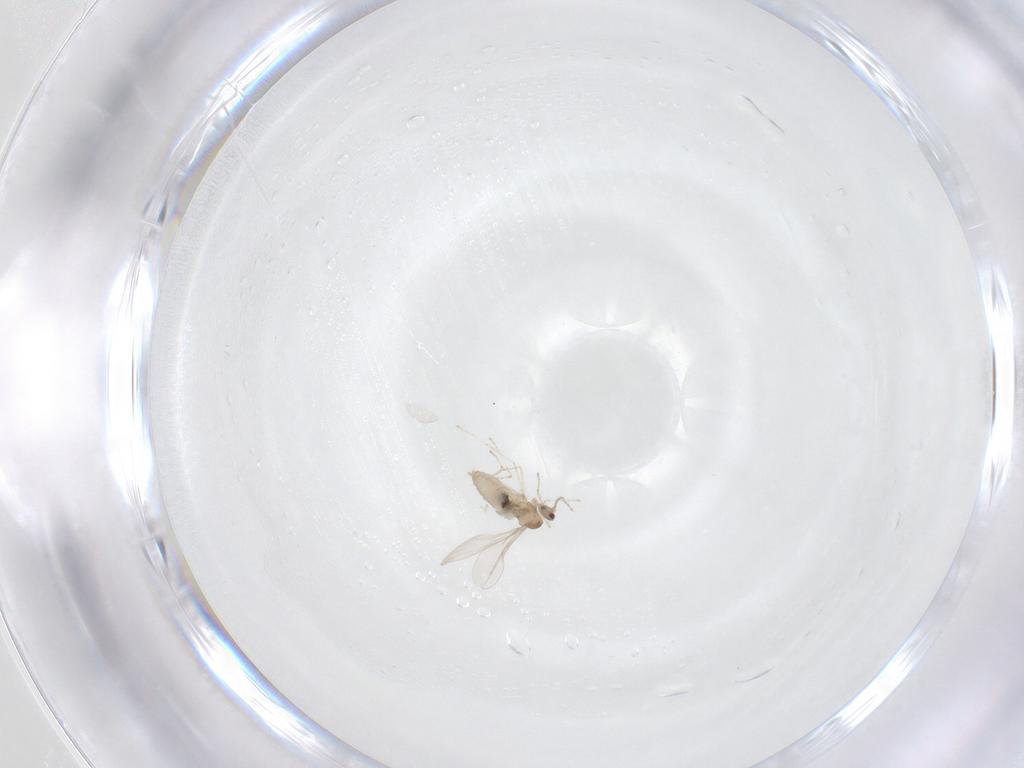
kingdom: Animalia
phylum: Arthropoda
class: Insecta
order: Diptera
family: Cecidomyiidae
